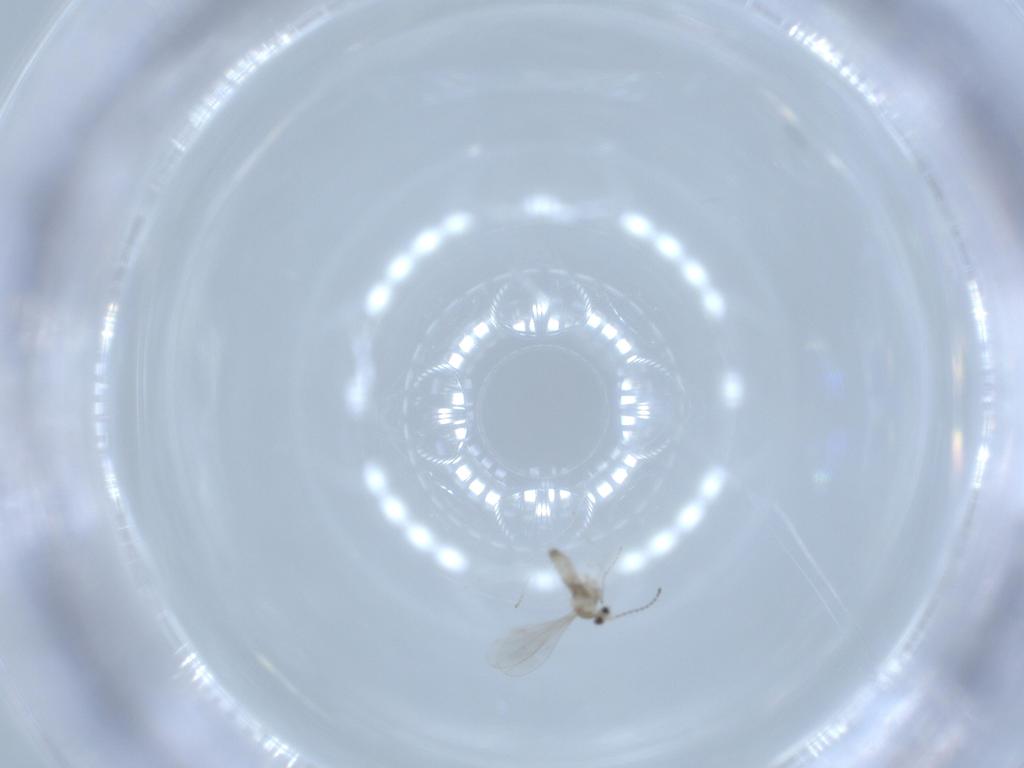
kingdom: Animalia
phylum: Arthropoda
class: Insecta
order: Diptera
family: Cecidomyiidae
